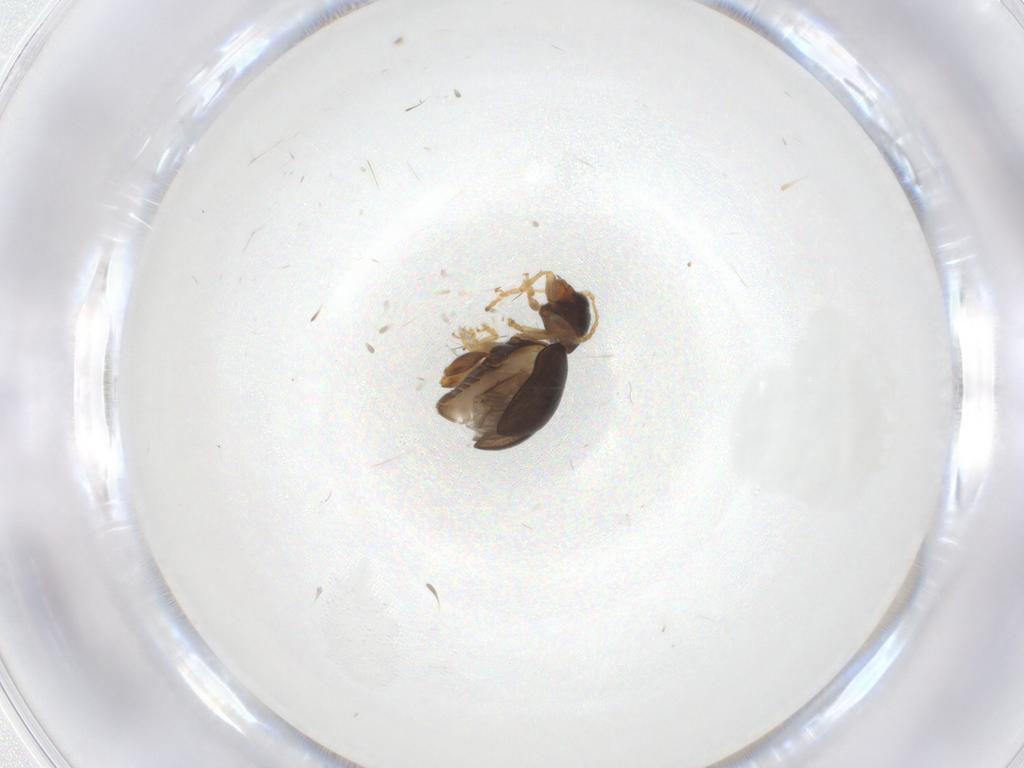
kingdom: Animalia
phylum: Arthropoda
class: Insecta
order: Coleoptera
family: Chrysomelidae
